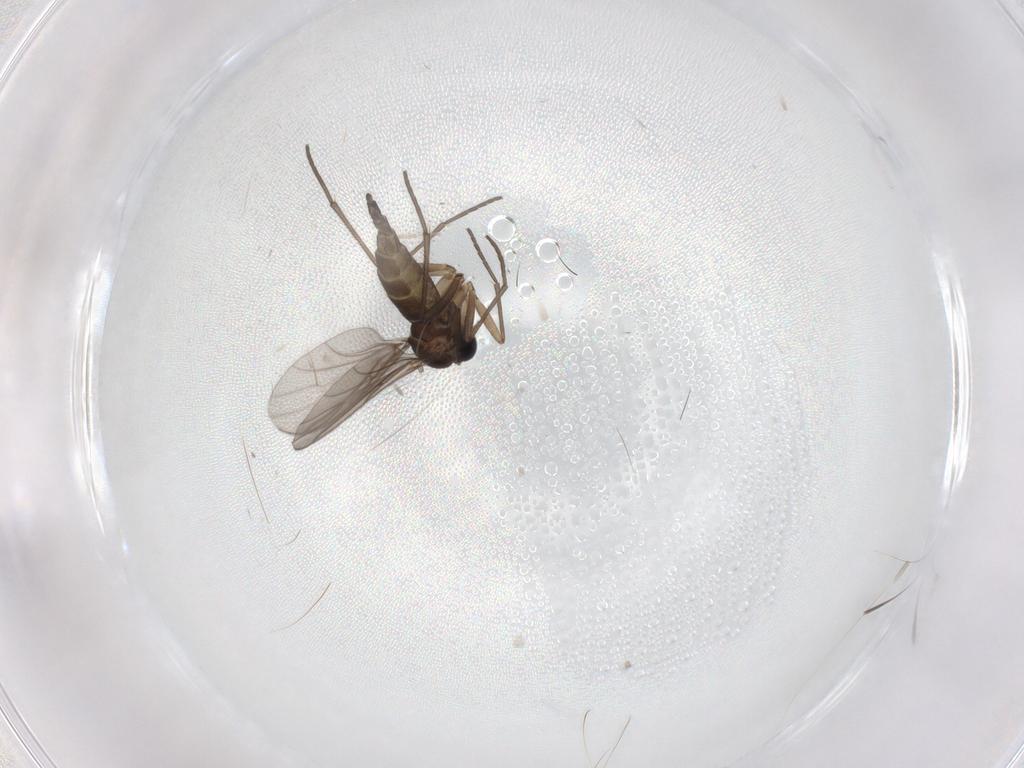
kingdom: Animalia
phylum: Arthropoda
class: Insecta
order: Diptera
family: Sciaridae
